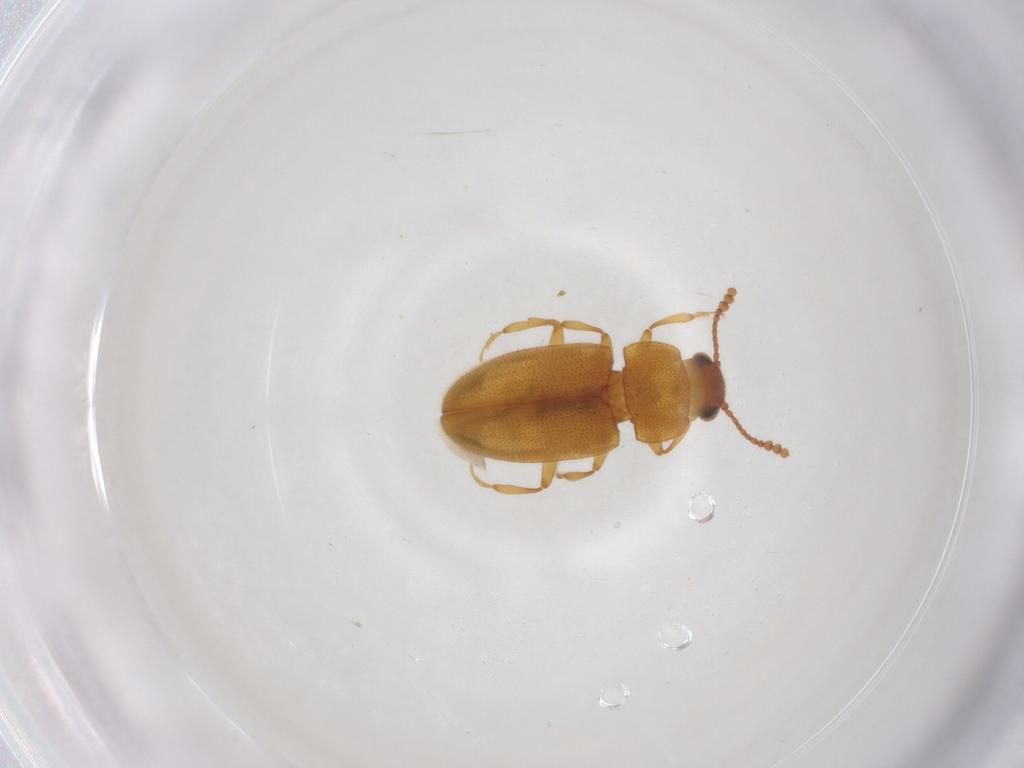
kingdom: Animalia
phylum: Arthropoda
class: Insecta
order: Coleoptera
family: Erotylidae
